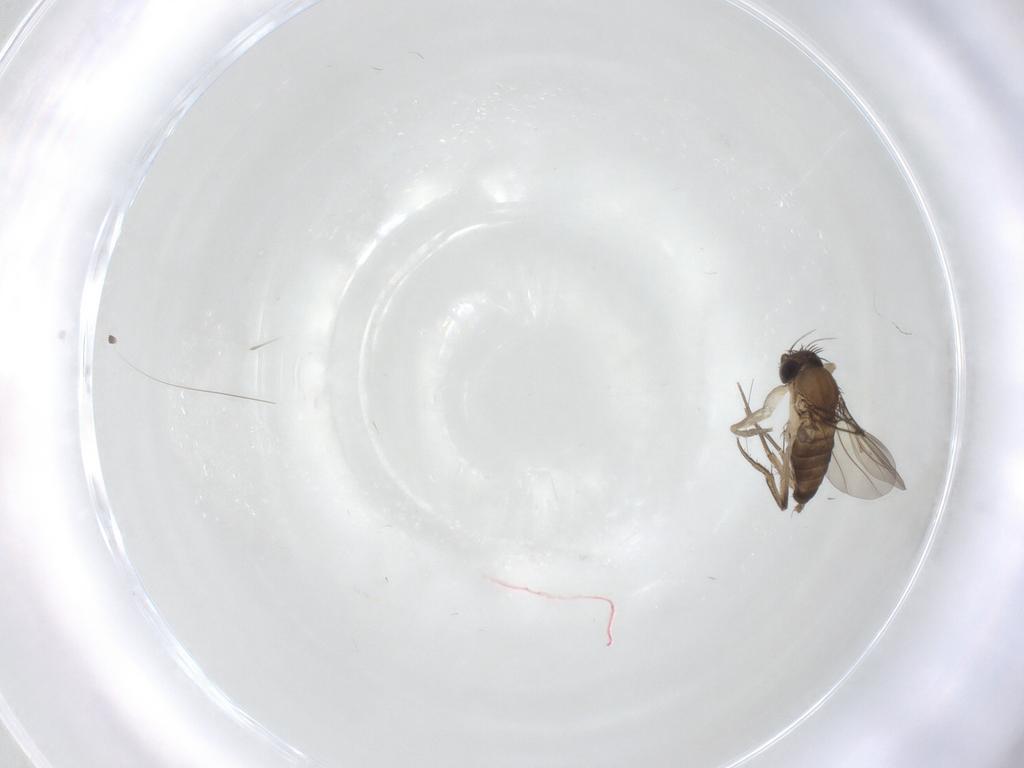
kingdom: Animalia
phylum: Arthropoda
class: Insecta
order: Diptera
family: Phoridae
